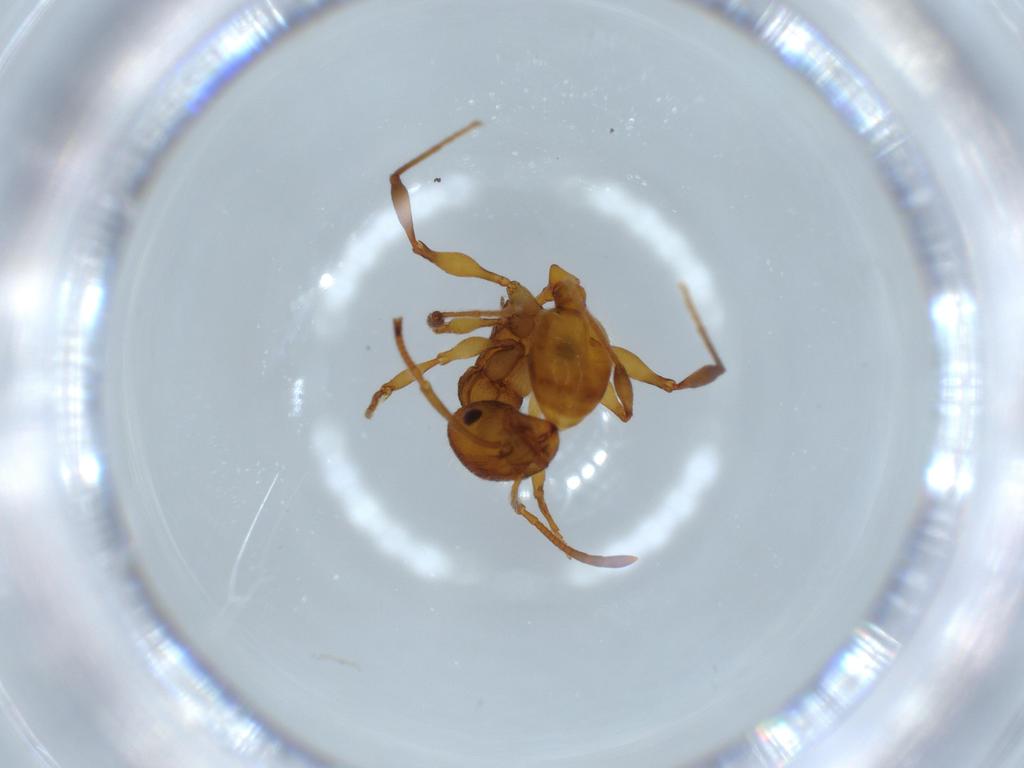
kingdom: Animalia
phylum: Arthropoda
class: Insecta
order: Hymenoptera
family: Formicidae
